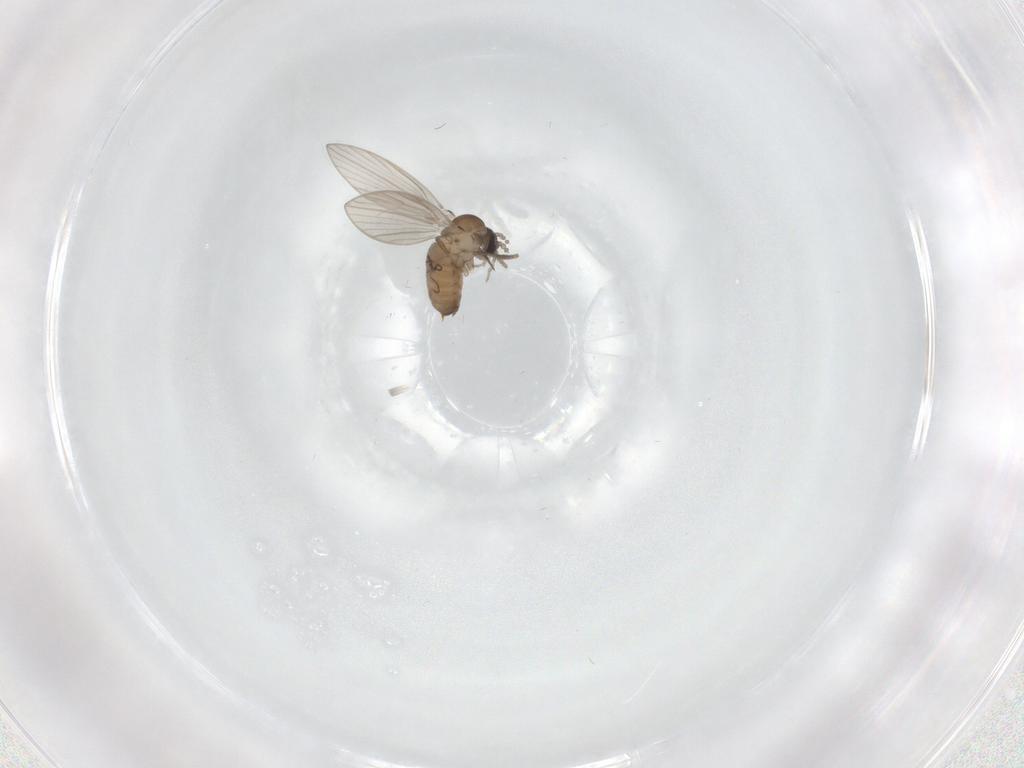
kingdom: Animalia
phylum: Arthropoda
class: Insecta
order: Diptera
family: Psychodidae
